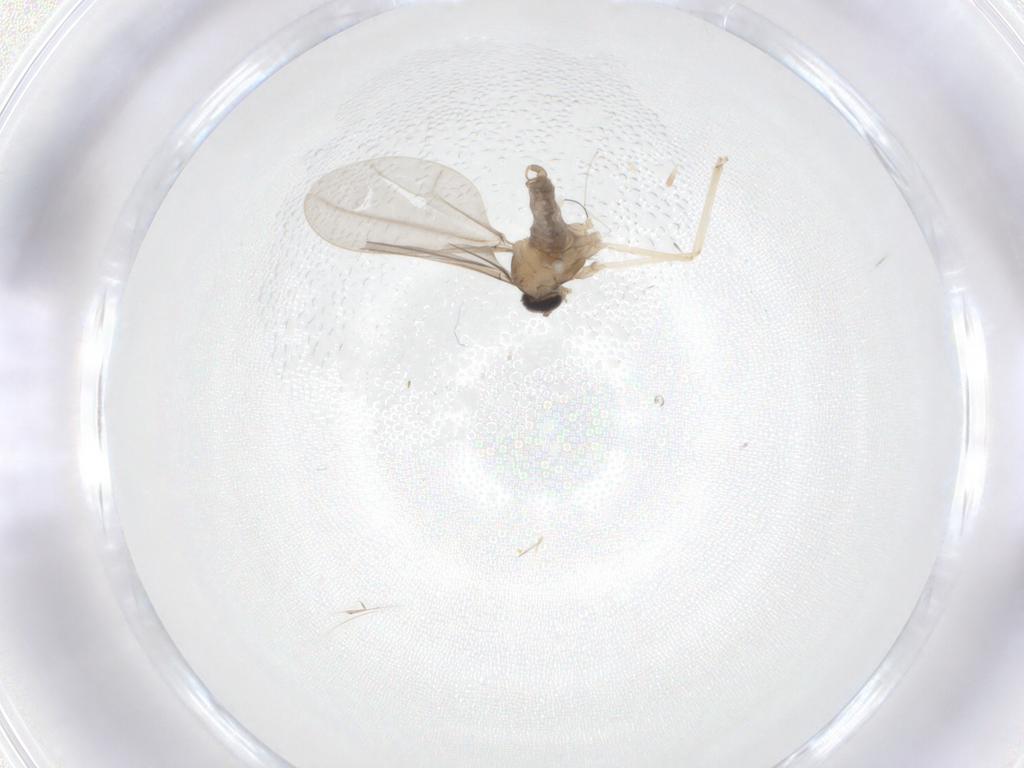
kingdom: Animalia
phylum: Arthropoda
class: Insecta
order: Diptera
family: Cecidomyiidae
